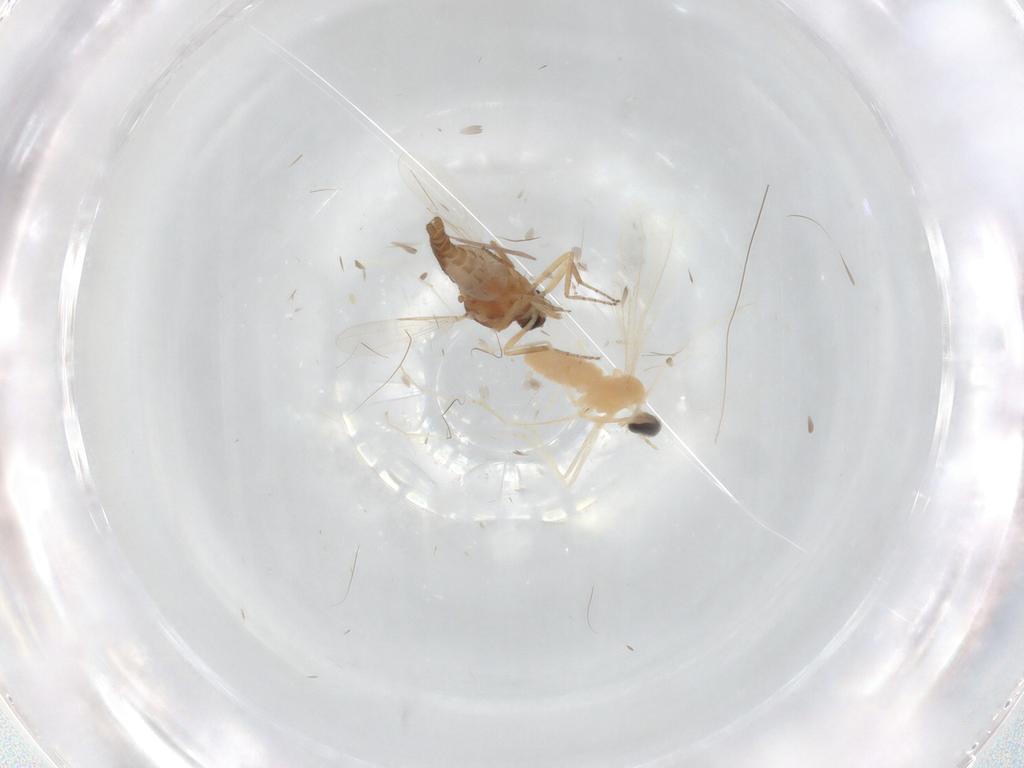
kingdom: Animalia
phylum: Arthropoda
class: Insecta
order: Diptera
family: Cecidomyiidae
